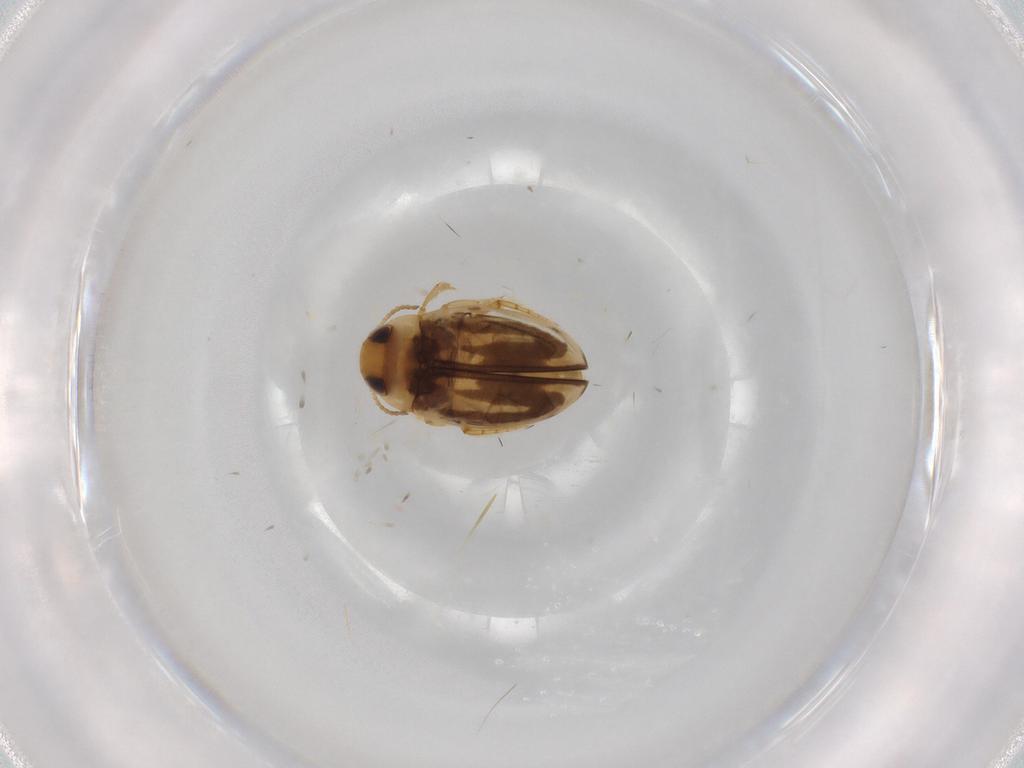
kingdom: Animalia
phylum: Arthropoda
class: Insecta
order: Coleoptera
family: Dytiscidae
